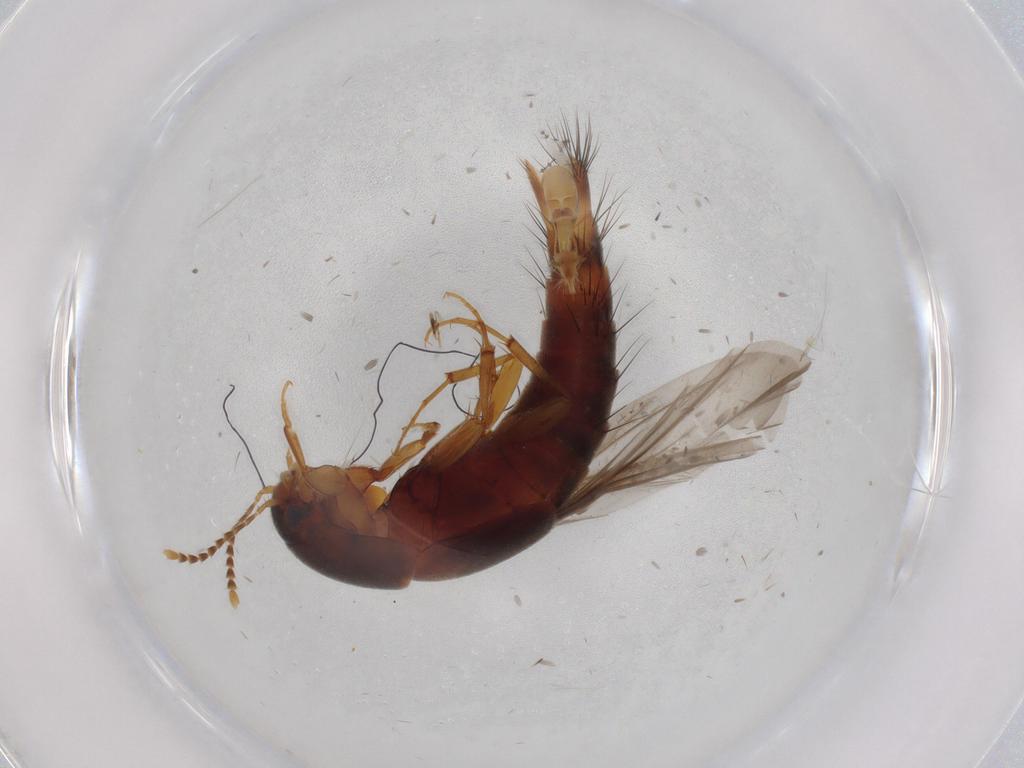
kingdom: Animalia
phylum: Arthropoda
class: Insecta
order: Coleoptera
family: Staphylinidae
